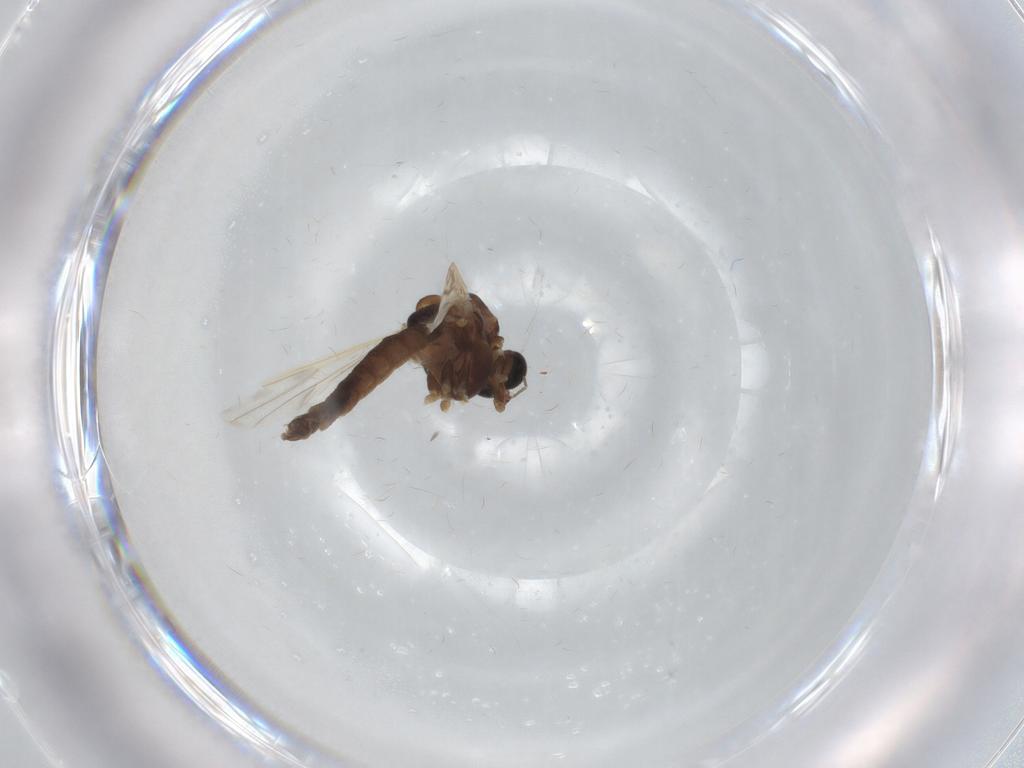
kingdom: Animalia
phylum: Arthropoda
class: Insecta
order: Diptera
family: Chironomidae
